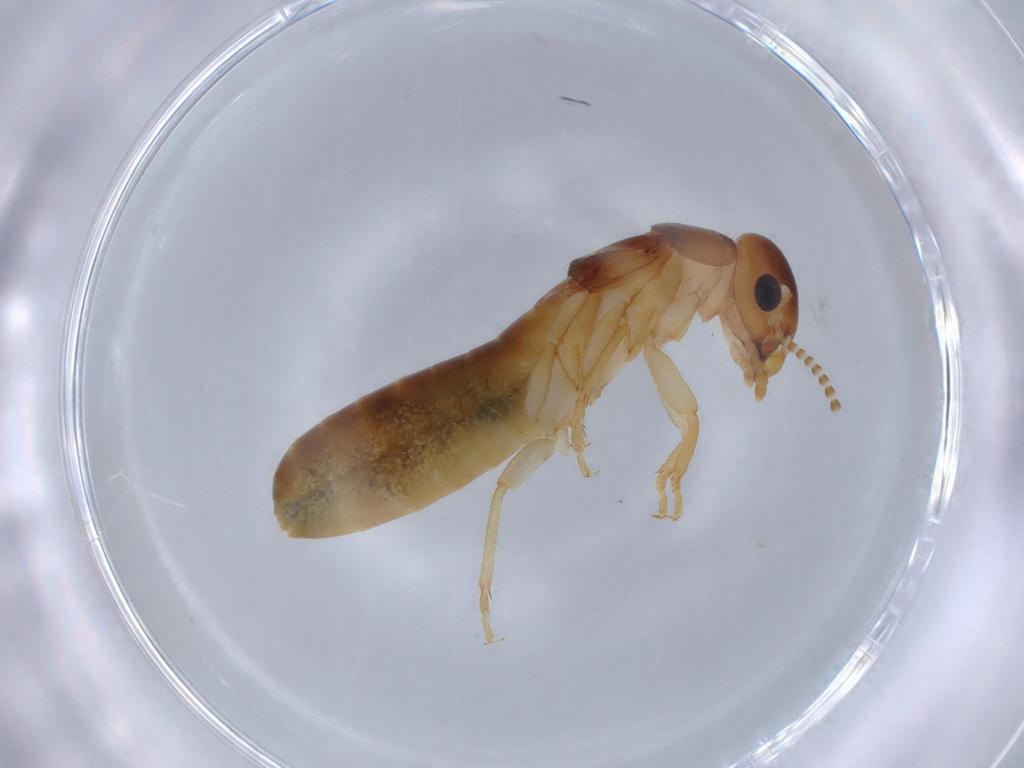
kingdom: Animalia
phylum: Arthropoda
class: Insecta
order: Blattodea
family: Kalotermitidae
